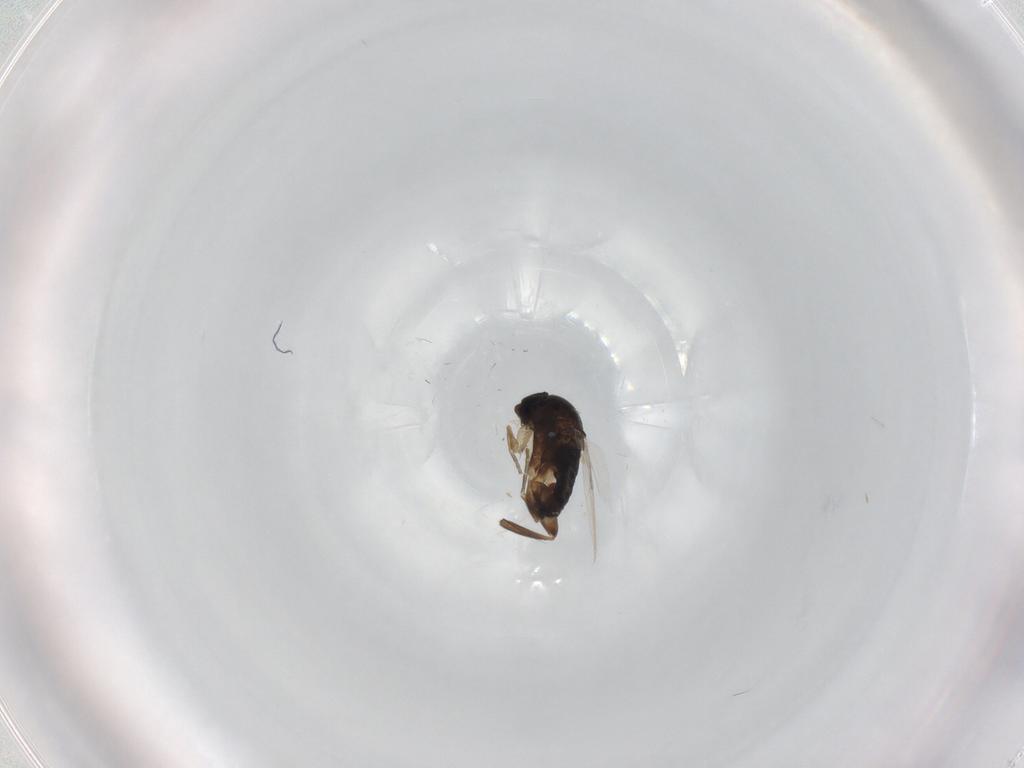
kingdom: Animalia
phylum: Arthropoda
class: Insecta
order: Diptera
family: Sciaridae
